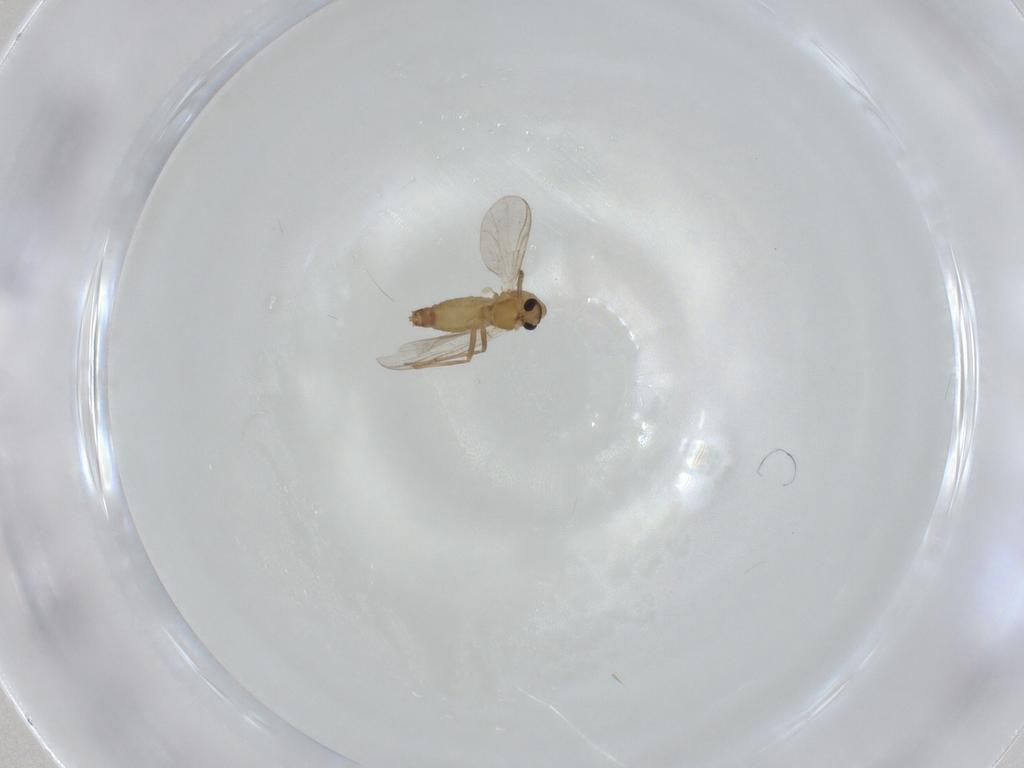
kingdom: Animalia
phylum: Arthropoda
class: Insecta
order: Diptera
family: Chironomidae
